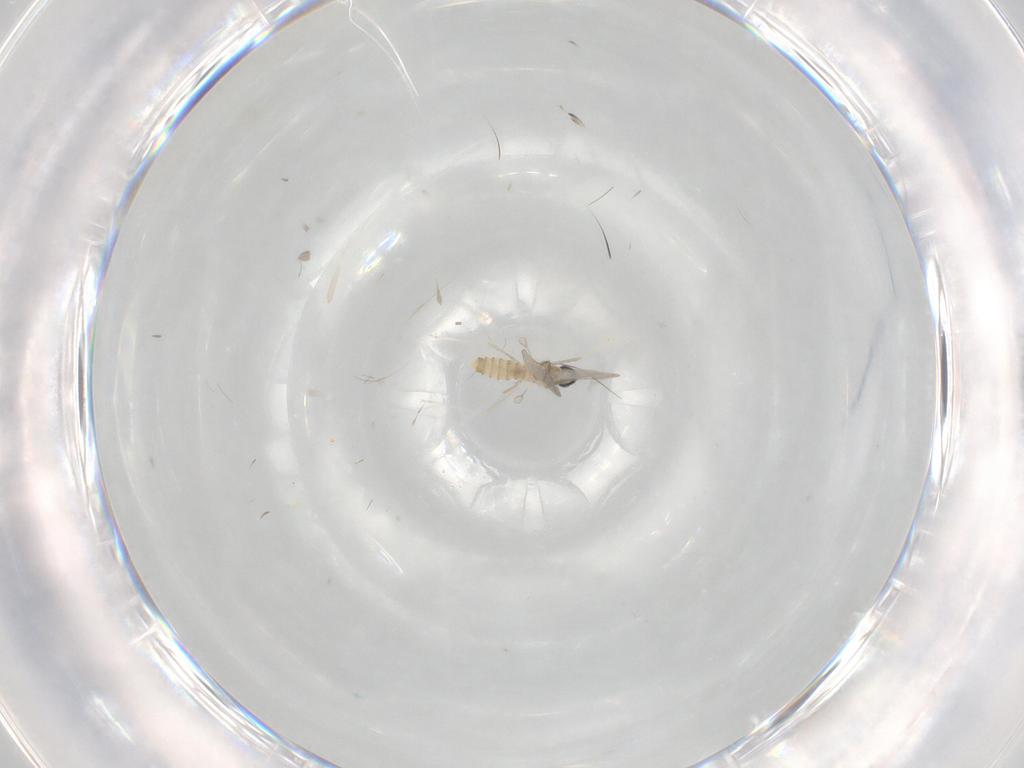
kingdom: Animalia
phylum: Arthropoda
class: Insecta
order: Diptera
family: Cecidomyiidae
